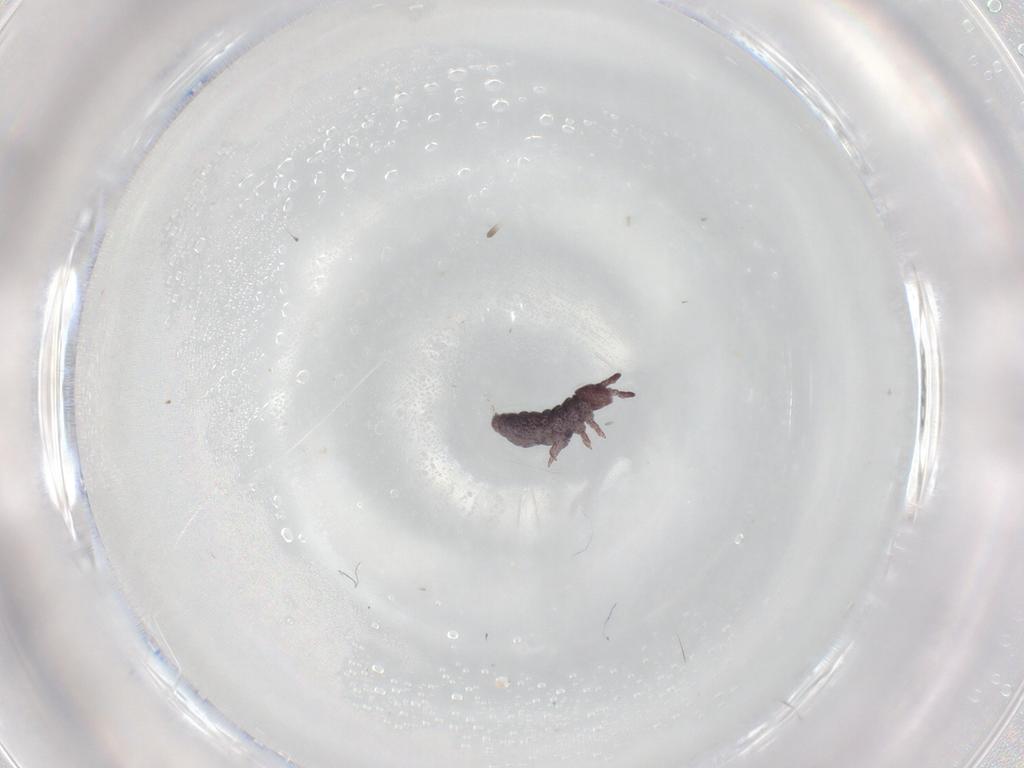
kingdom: Animalia
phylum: Arthropoda
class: Collembola
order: Poduromorpha
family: Hypogastruridae
